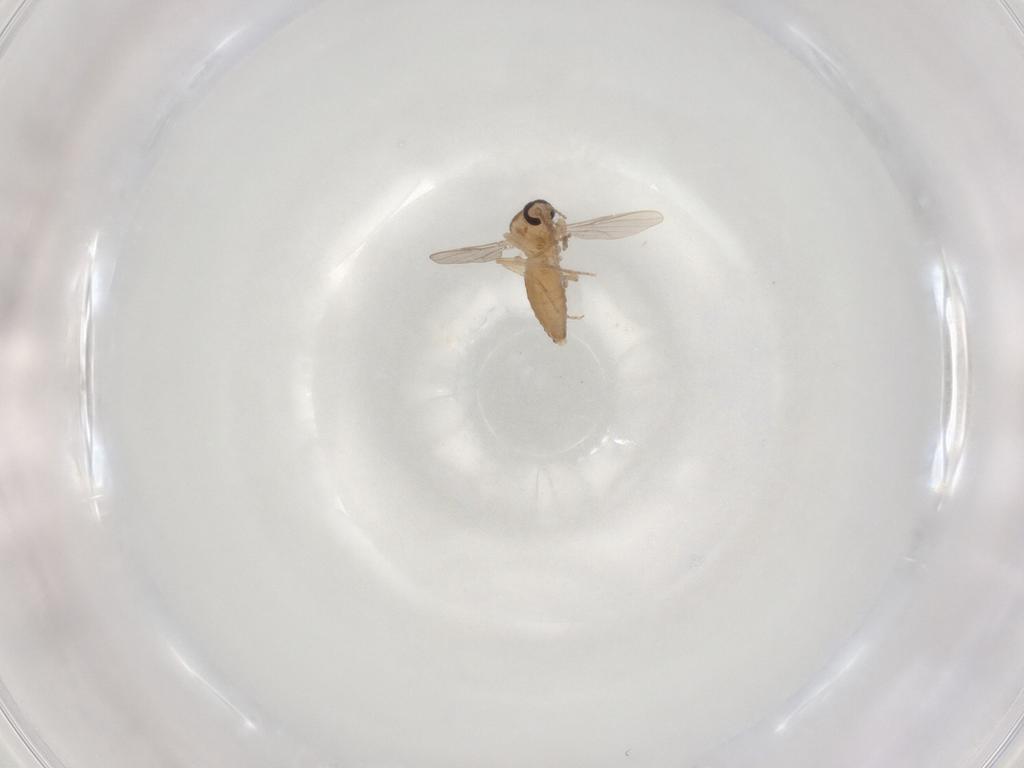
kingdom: Animalia
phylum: Arthropoda
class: Insecta
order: Diptera
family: Ceratopogonidae
